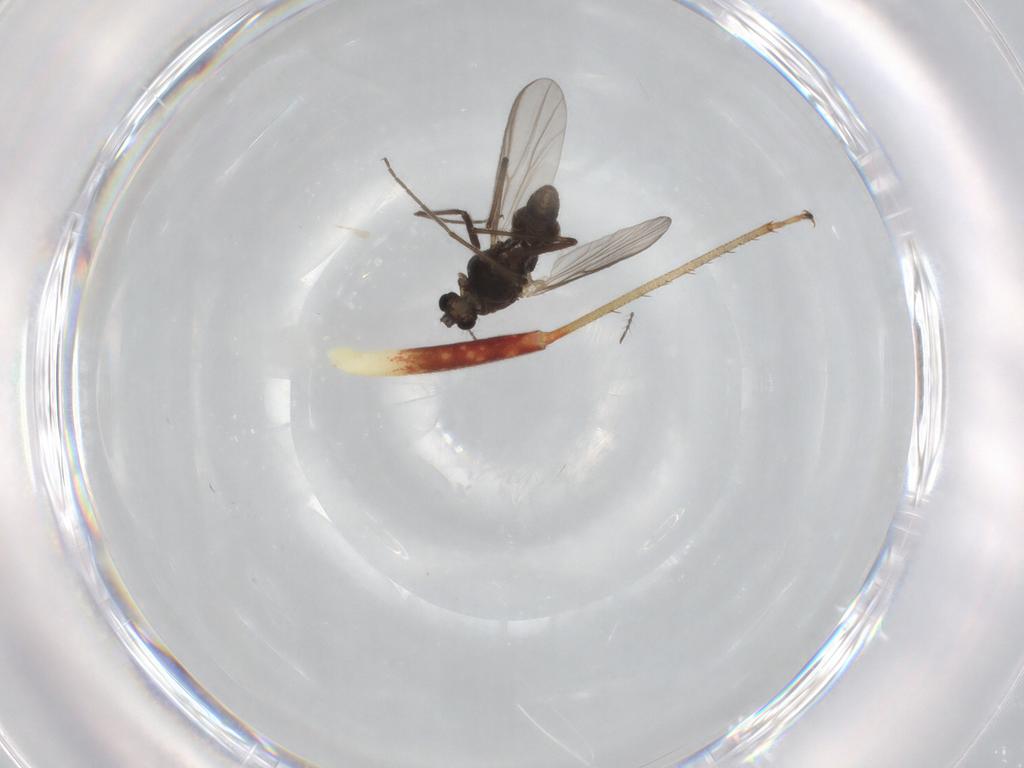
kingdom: Animalia
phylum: Arthropoda
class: Insecta
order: Diptera
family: Chironomidae
